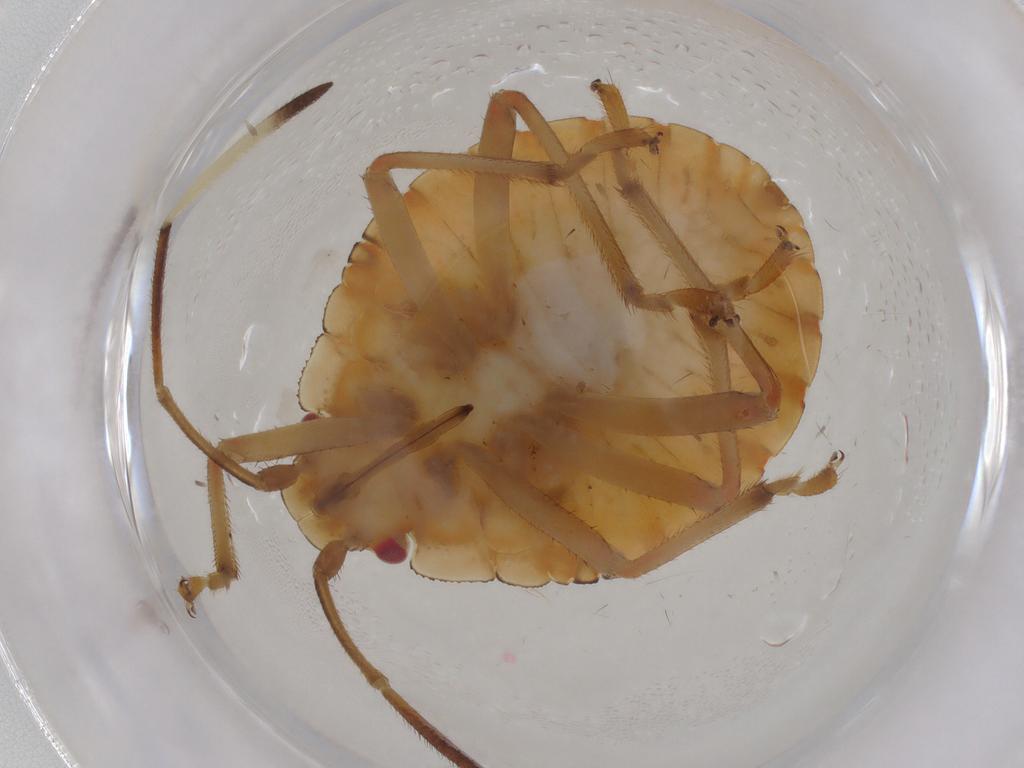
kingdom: Animalia
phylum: Arthropoda
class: Insecta
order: Hemiptera
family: Pentatomidae
